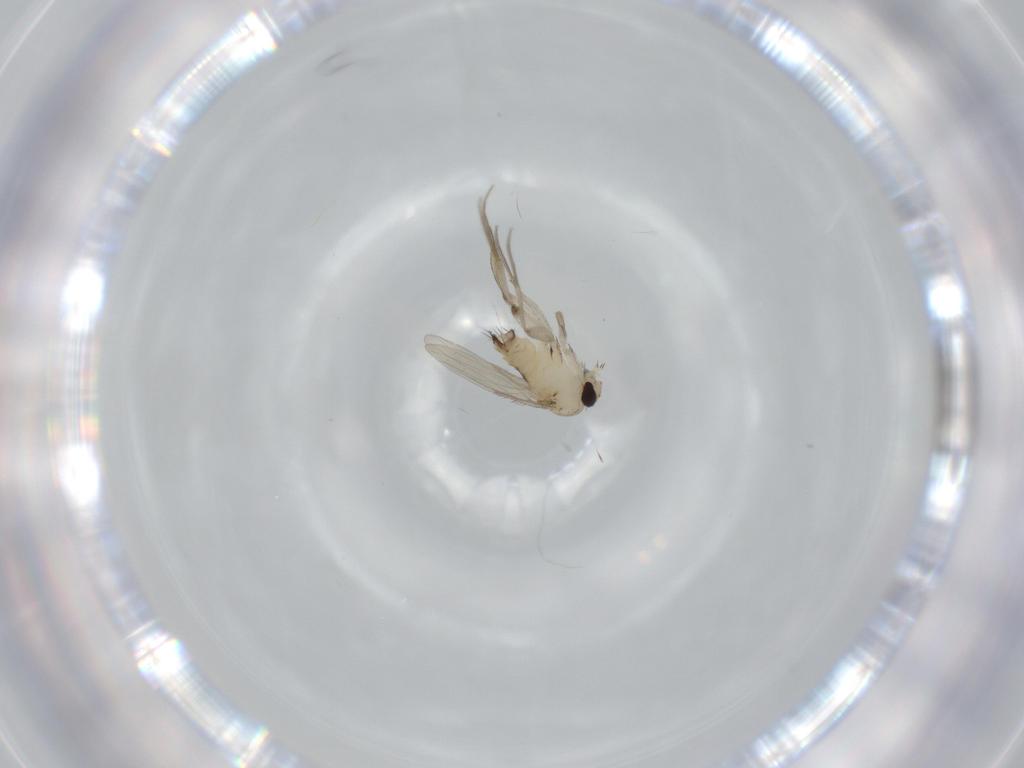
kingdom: Animalia
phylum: Arthropoda
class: Insecta
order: Diptera
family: Phoridae
